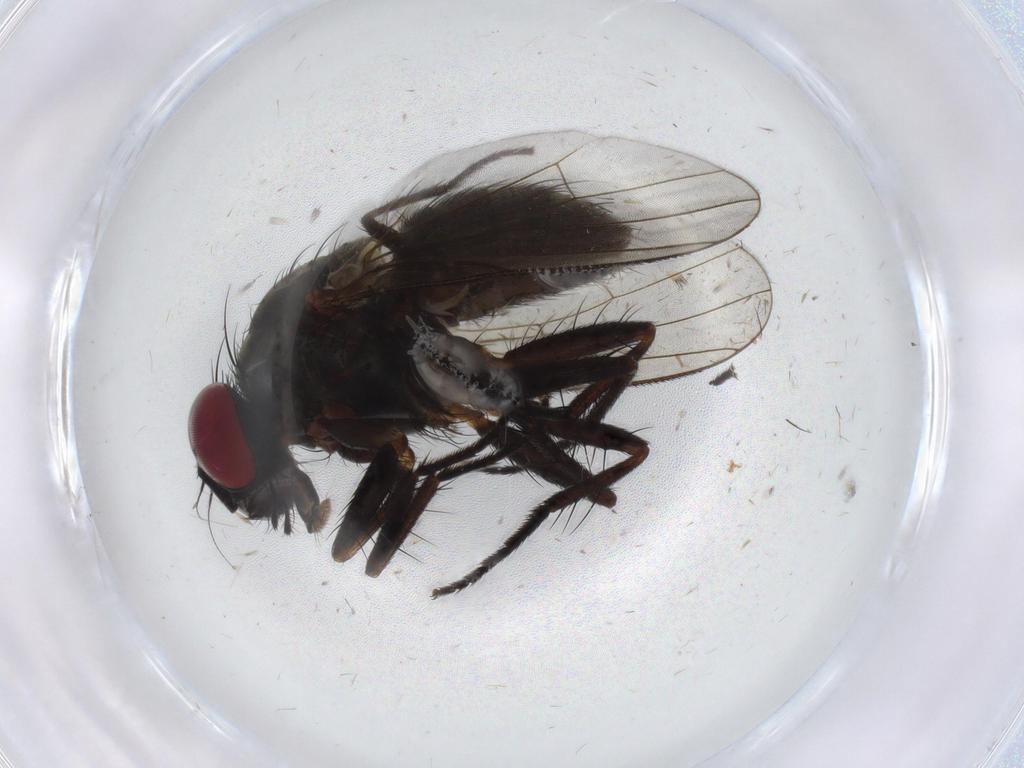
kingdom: Animalia
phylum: Arthropoda
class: Insecta
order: Diptera
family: Muscidae
